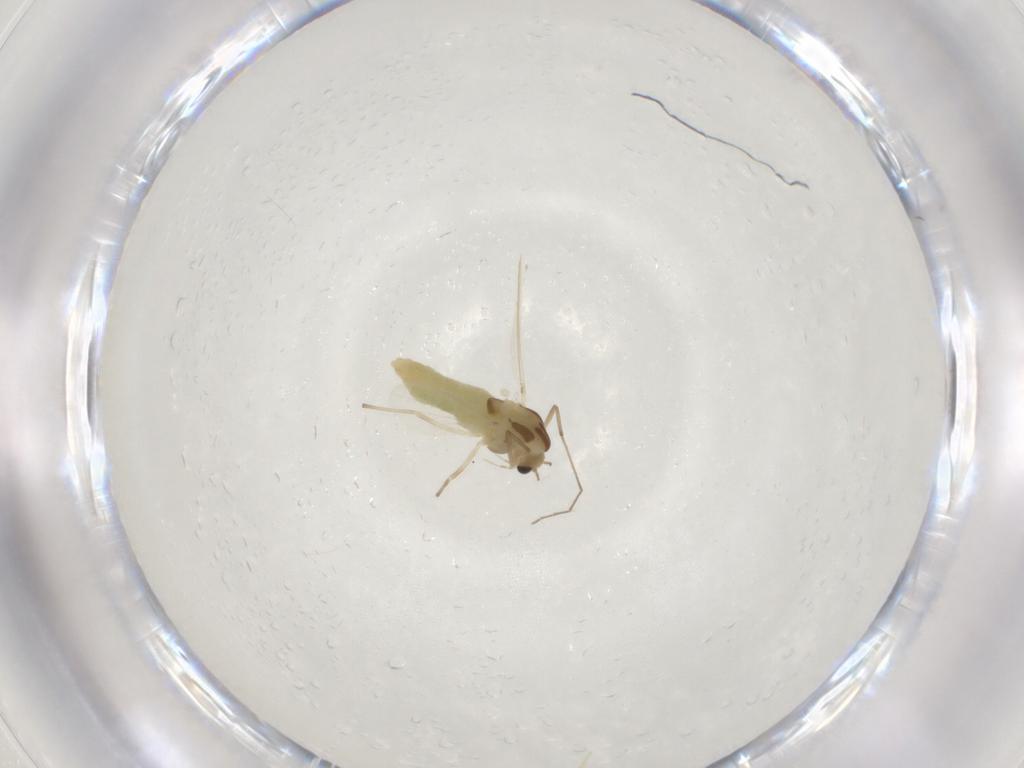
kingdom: Animalia
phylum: Arthropoda
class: Insecta
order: Diptera
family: Chironomidae
